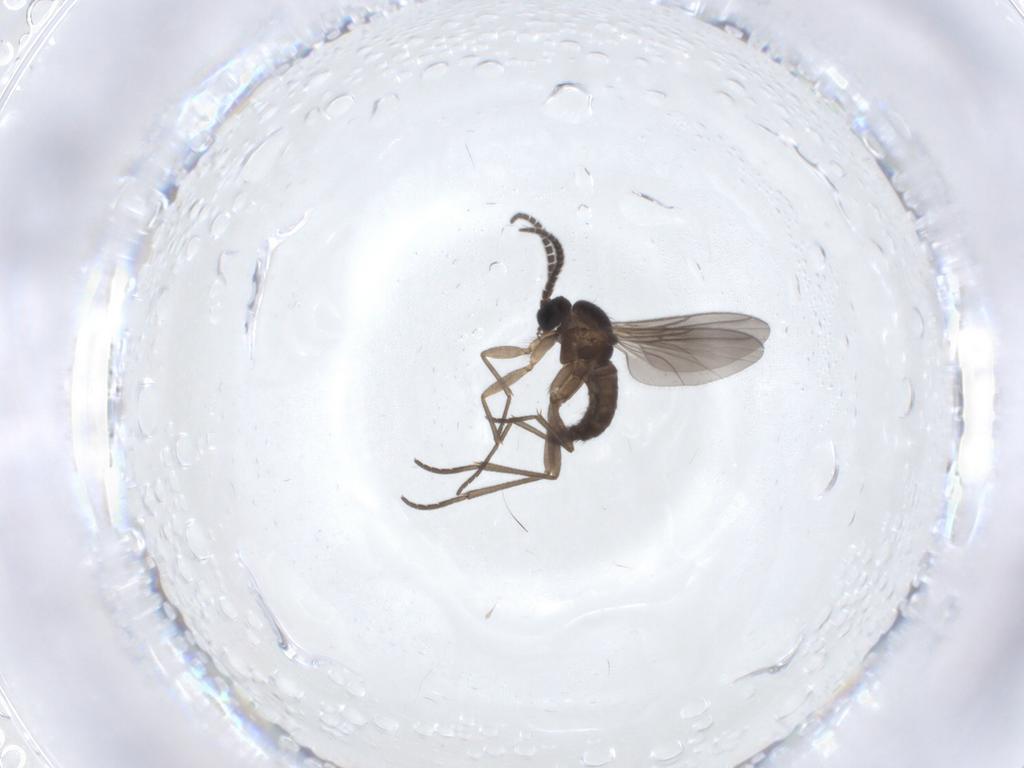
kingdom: Animalia
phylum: Arthropoda
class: Insecta
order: Diptera
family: Sciaridae
